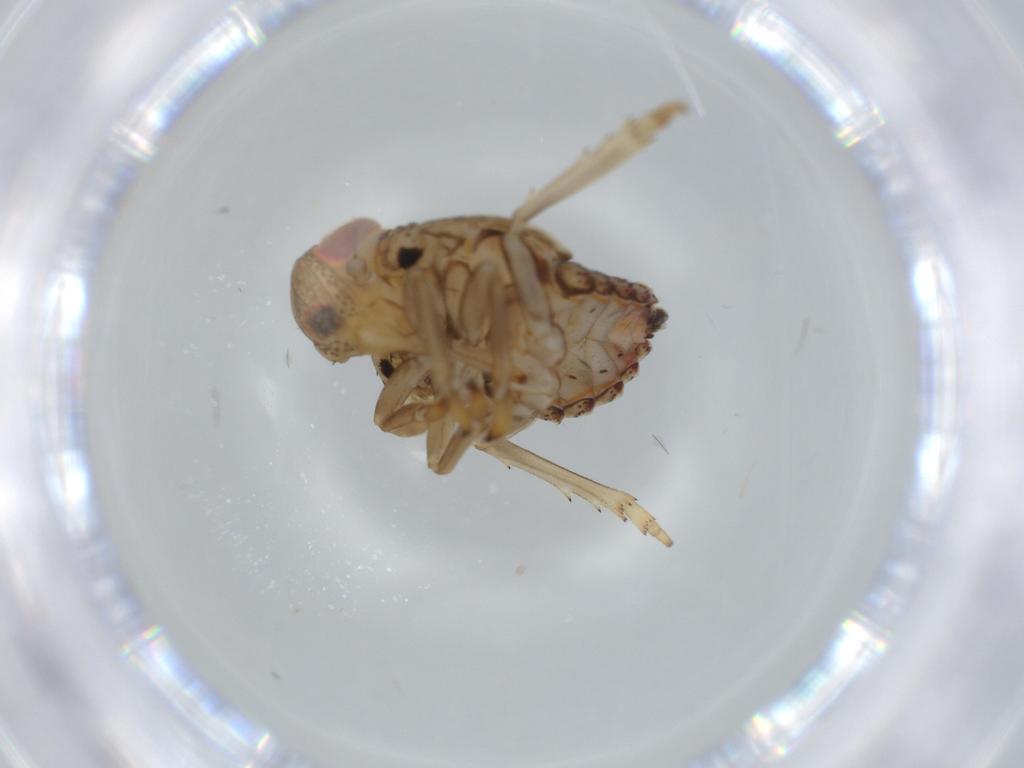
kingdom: Animalia
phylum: Arthropoda
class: Insecta
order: Hemiptera
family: Issidae
